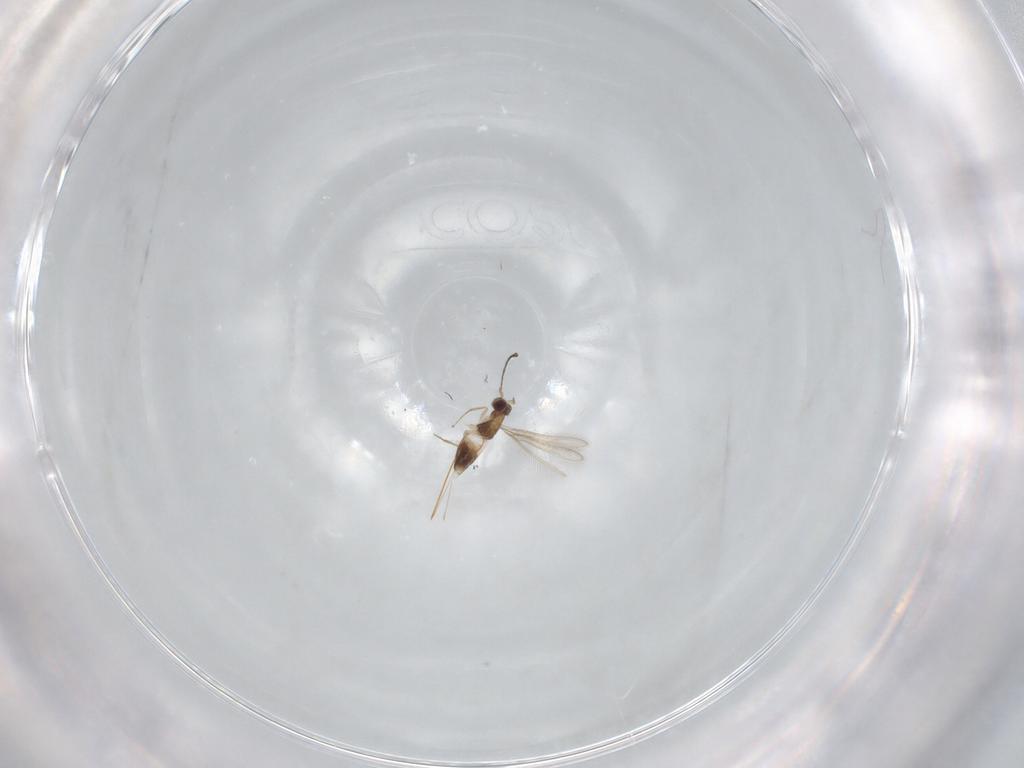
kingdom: Animalia
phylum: Arthropoda
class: Insecta
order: Hymenoptera
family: Mymaridae
